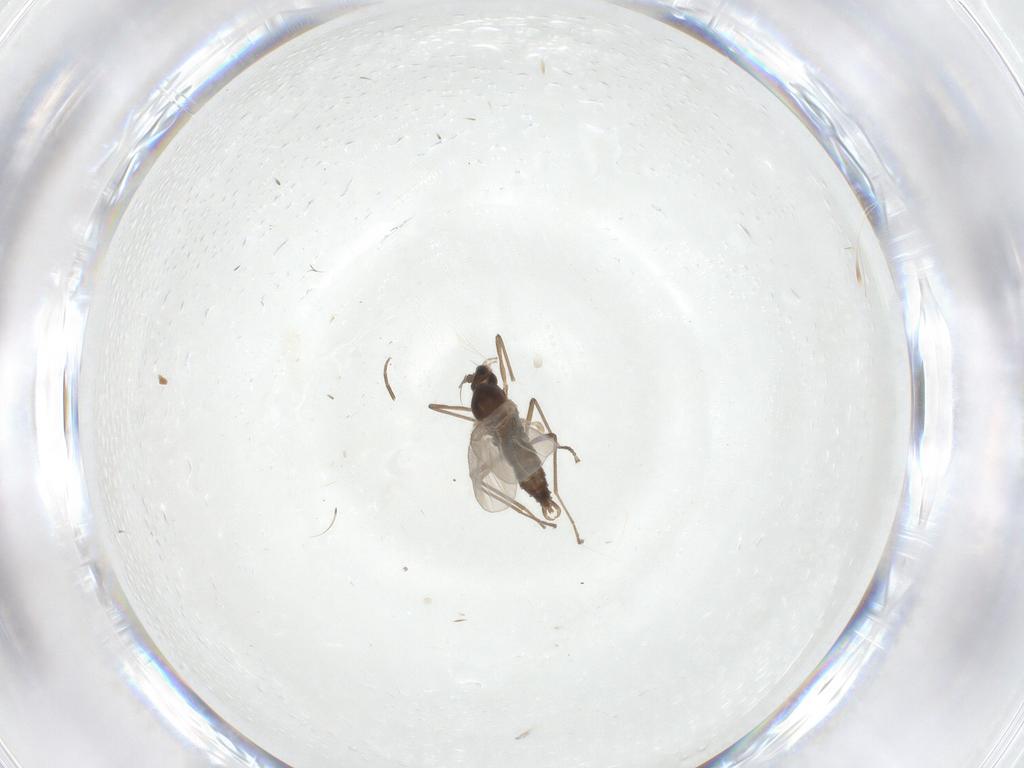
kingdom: Animalia
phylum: Arthropoda
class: Insecta
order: Diptera
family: Cecidomyiidae
